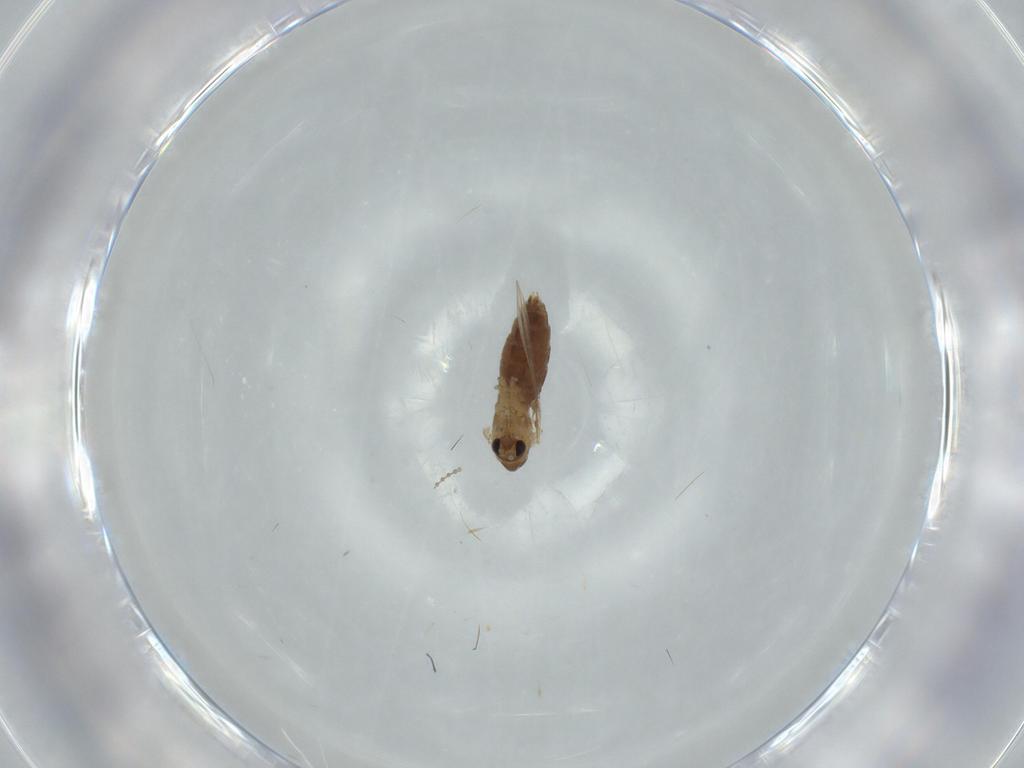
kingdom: Animalia
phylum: Arthropoda
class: Insecta
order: Diptera
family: Psychodidae
